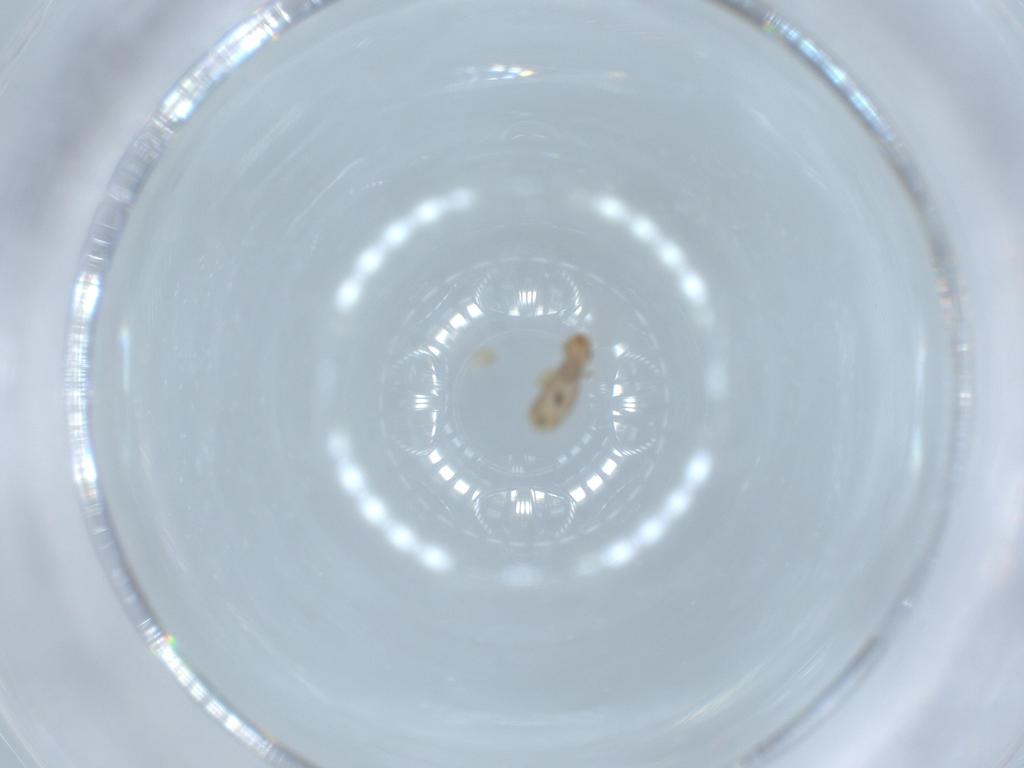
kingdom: Animalia
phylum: Arthropoda
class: Insecta
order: Psocodea
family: Liposcelididae
